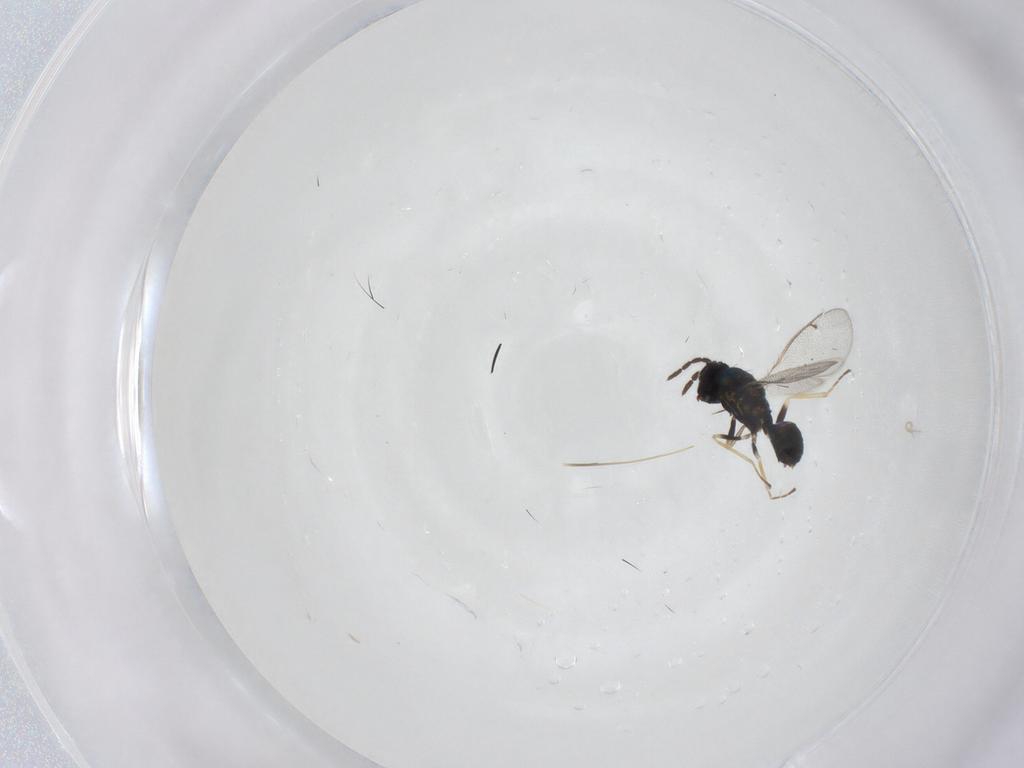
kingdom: Animalia
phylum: Arthropoda
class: Insecta
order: Hymenoptera
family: Eulophidae
